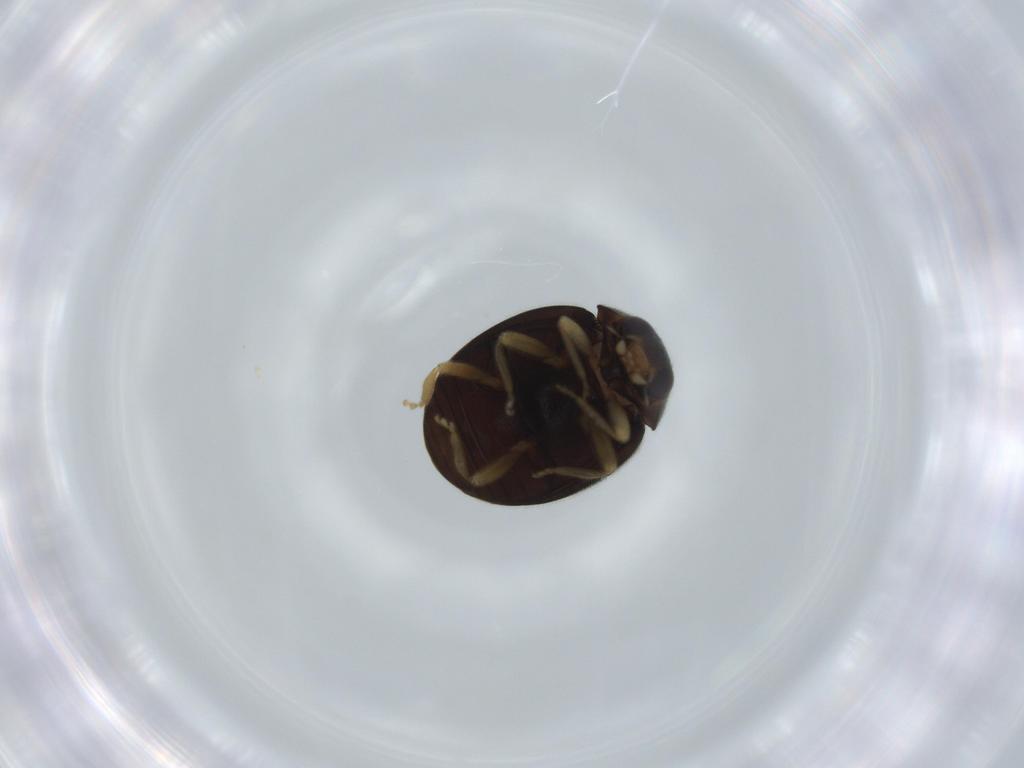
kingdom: Animalia
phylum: Arthropoda
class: Insecta
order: Coleoptera
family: Coccinellidae
